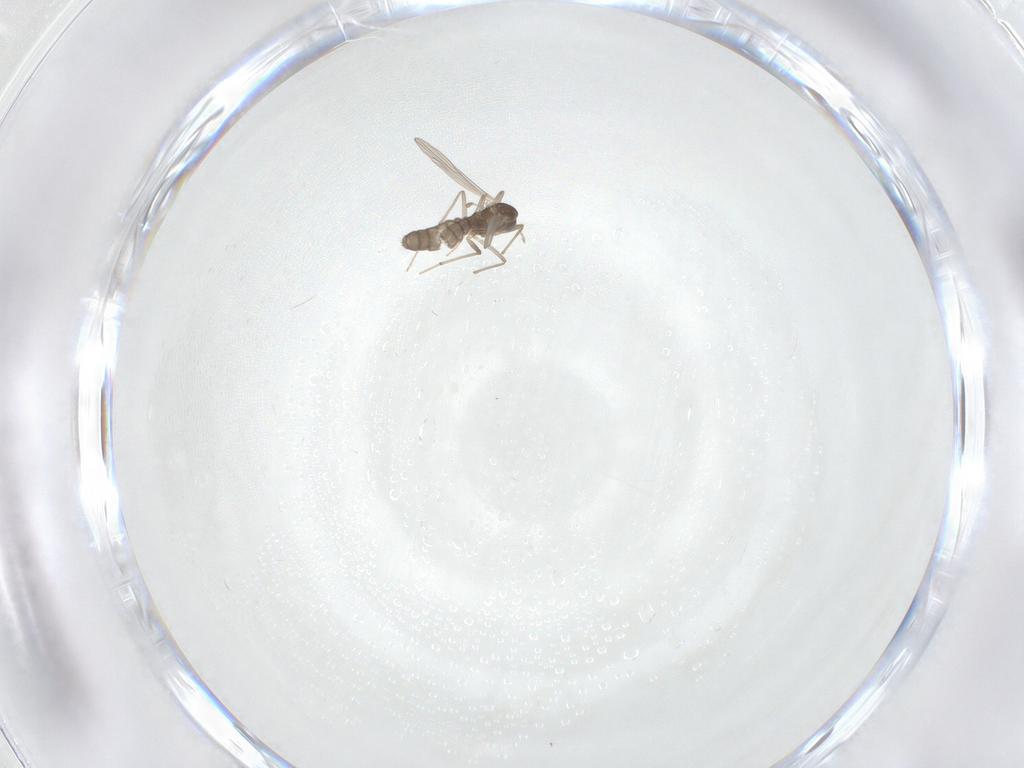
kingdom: Animalia
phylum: Arthropoda
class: Insecta
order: Diptera
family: Chironomidae
